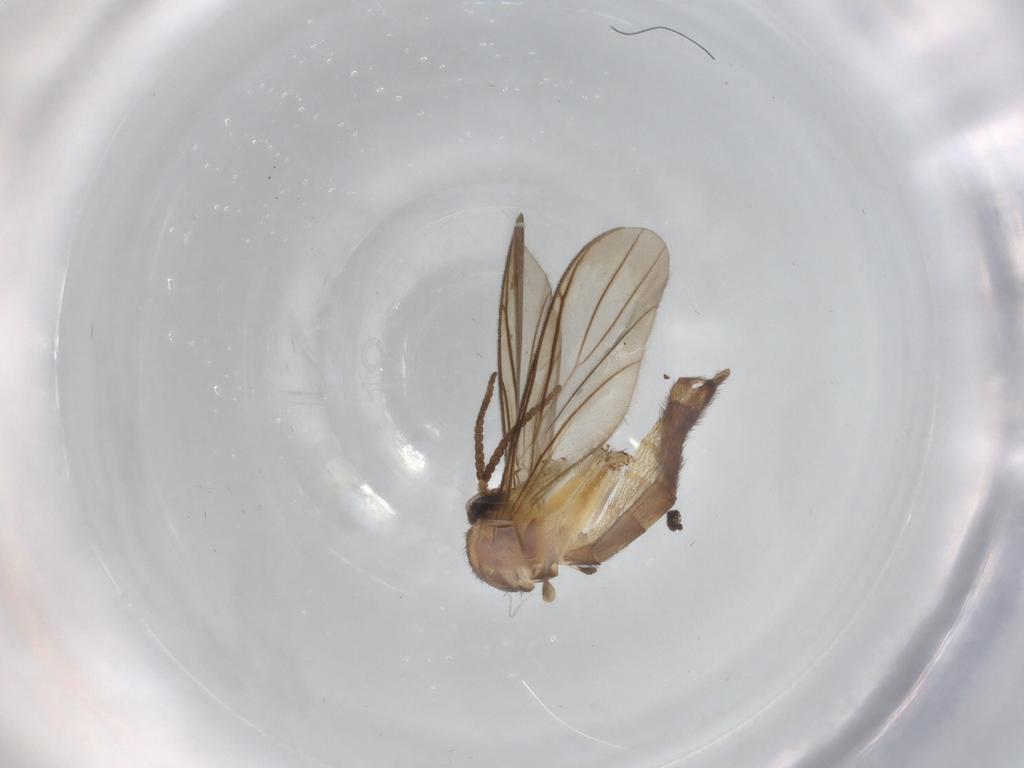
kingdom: Animalia
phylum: Arthropoda
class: Insecta
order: Diptera
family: Keroplatidae
